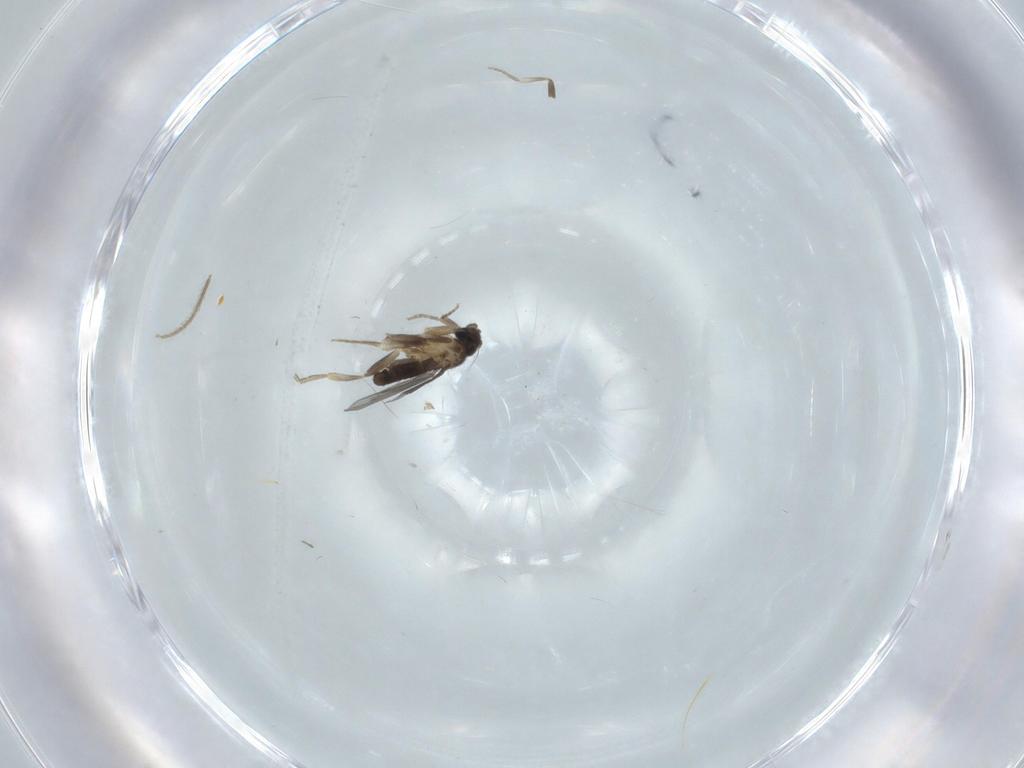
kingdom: Animalia
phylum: Arthropoda
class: Insecta
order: Diptera
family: Chironomidae
